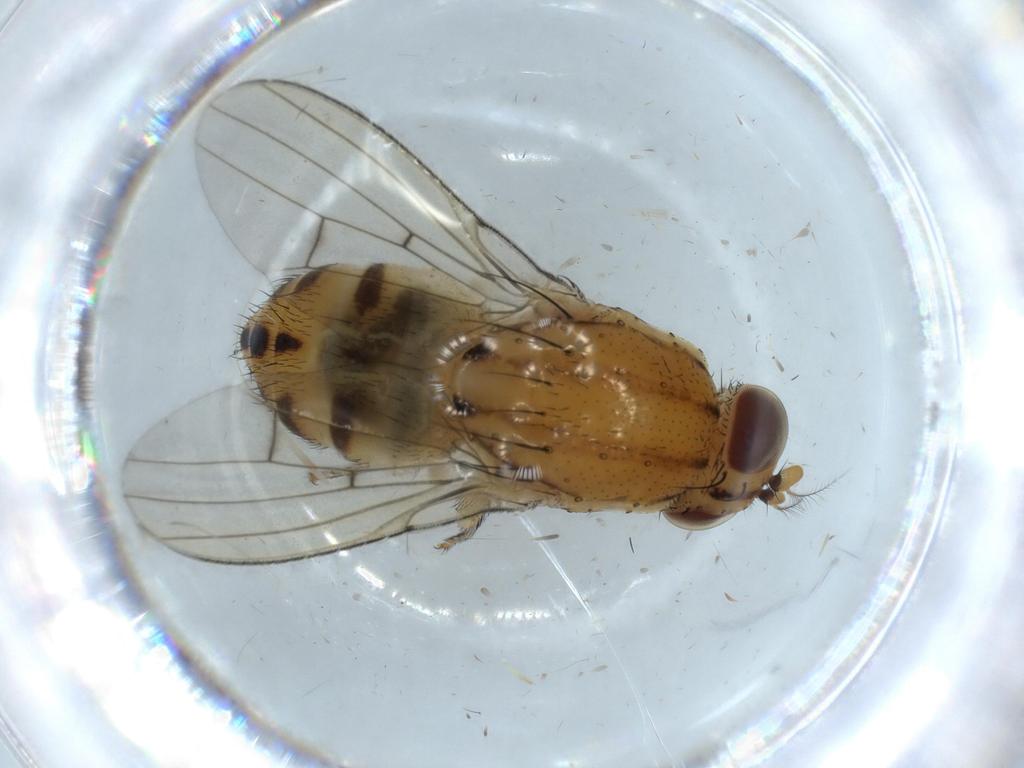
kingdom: Animalia
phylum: Arthropoda
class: Insecta
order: Diptera
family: Lauxaniidae
